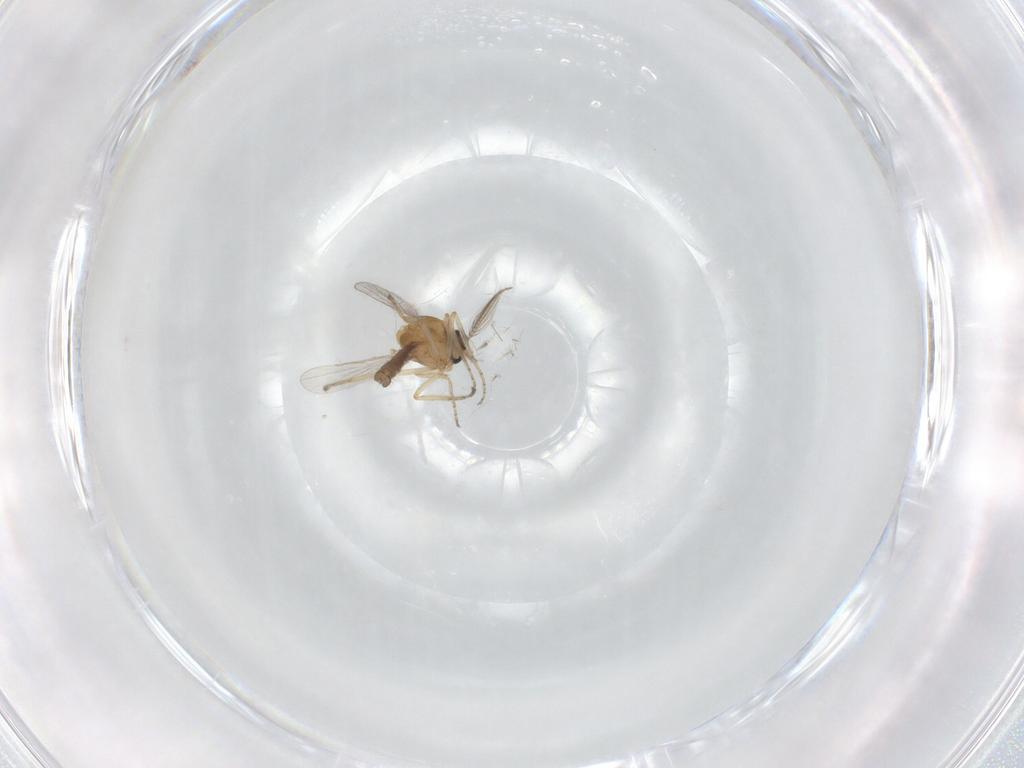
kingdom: Animalia
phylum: Arthropoda
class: Insecta
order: Diptera
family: Ceratopogonidae
